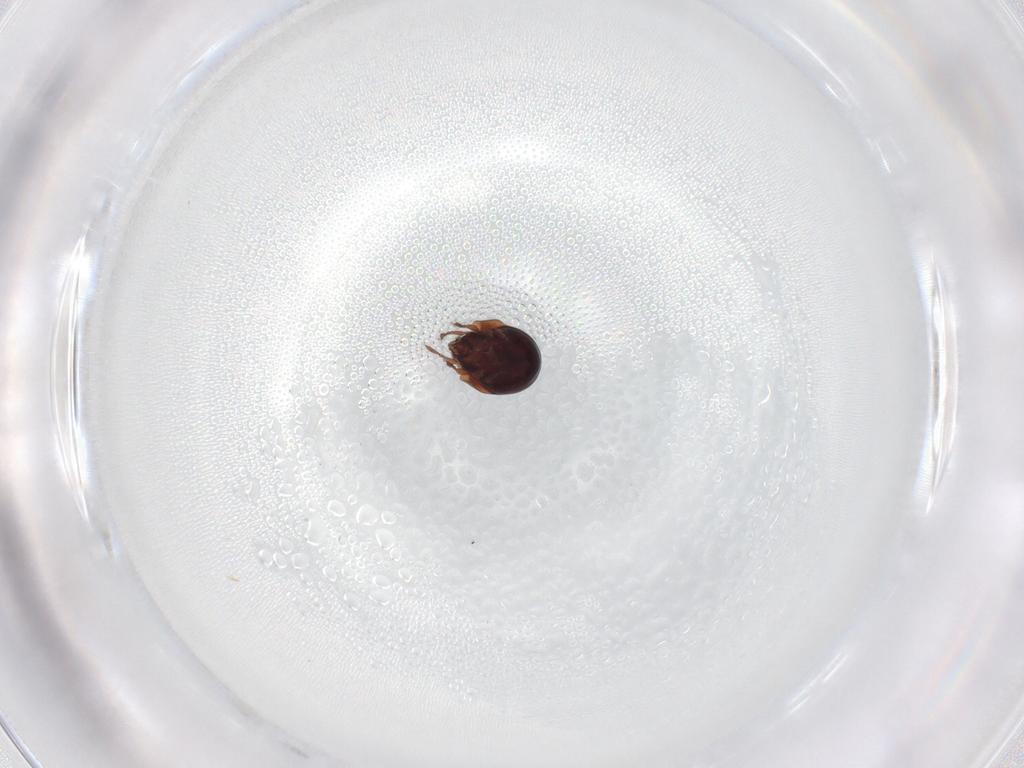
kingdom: Animalia
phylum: Arthropoda
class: Arachnida
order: Sarcoptiformes
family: Humerobatidae
